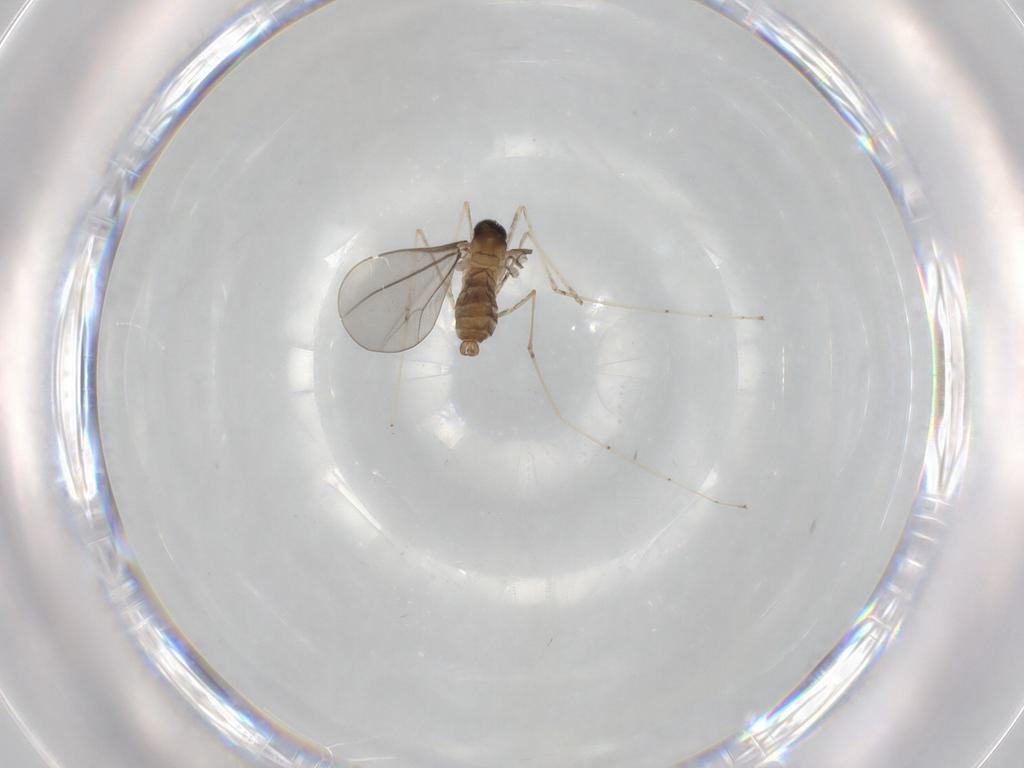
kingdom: Animalia
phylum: Arthropoda
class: Insecta
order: Diptera
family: Cecidomyiidae
